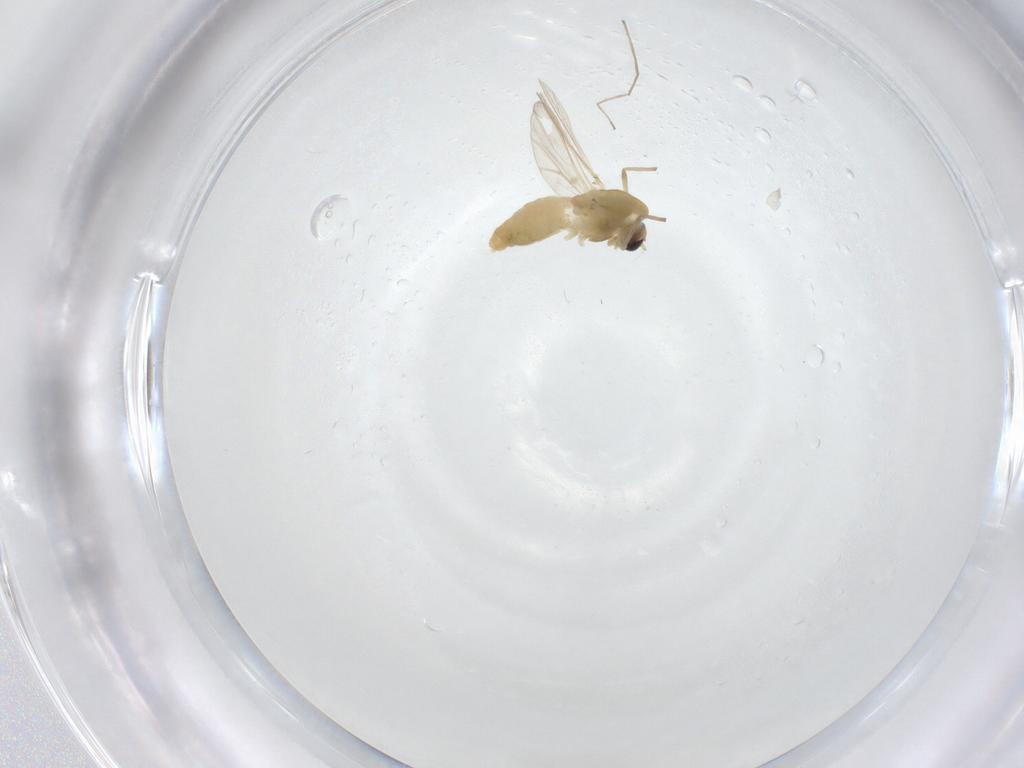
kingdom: Animalia
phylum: Arthropoda
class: Insecta
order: Diptera
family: Chironomidae
